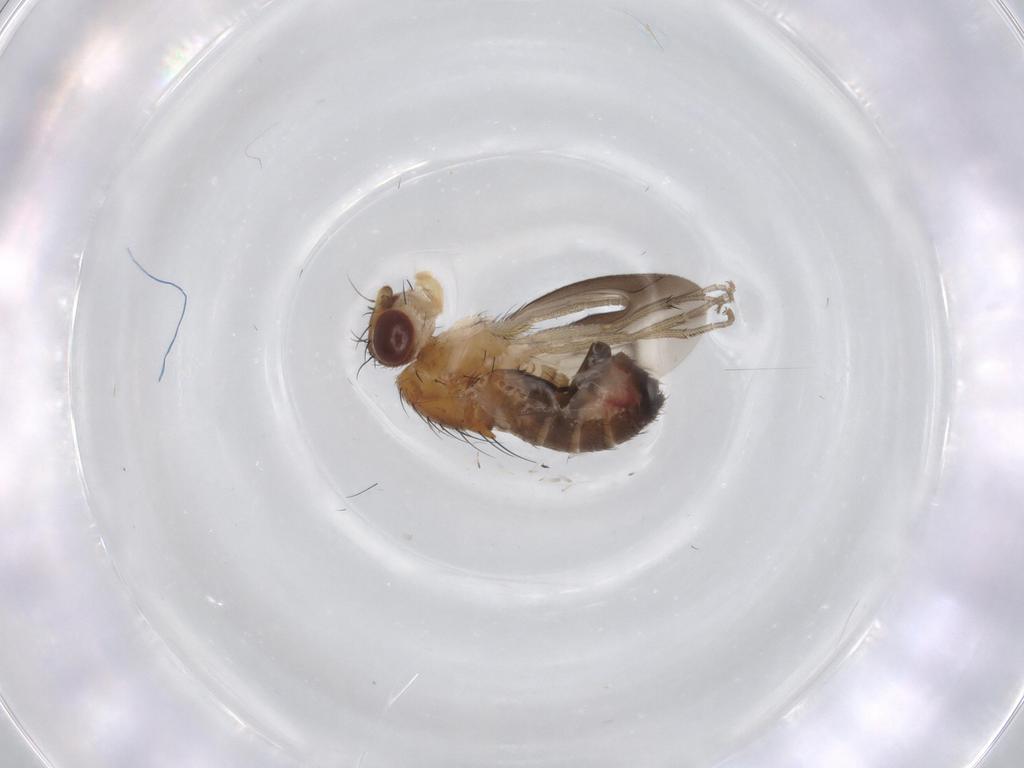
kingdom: Animalia
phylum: Arthropoda
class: Insecta
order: Diptera
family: Heleomyzidae
